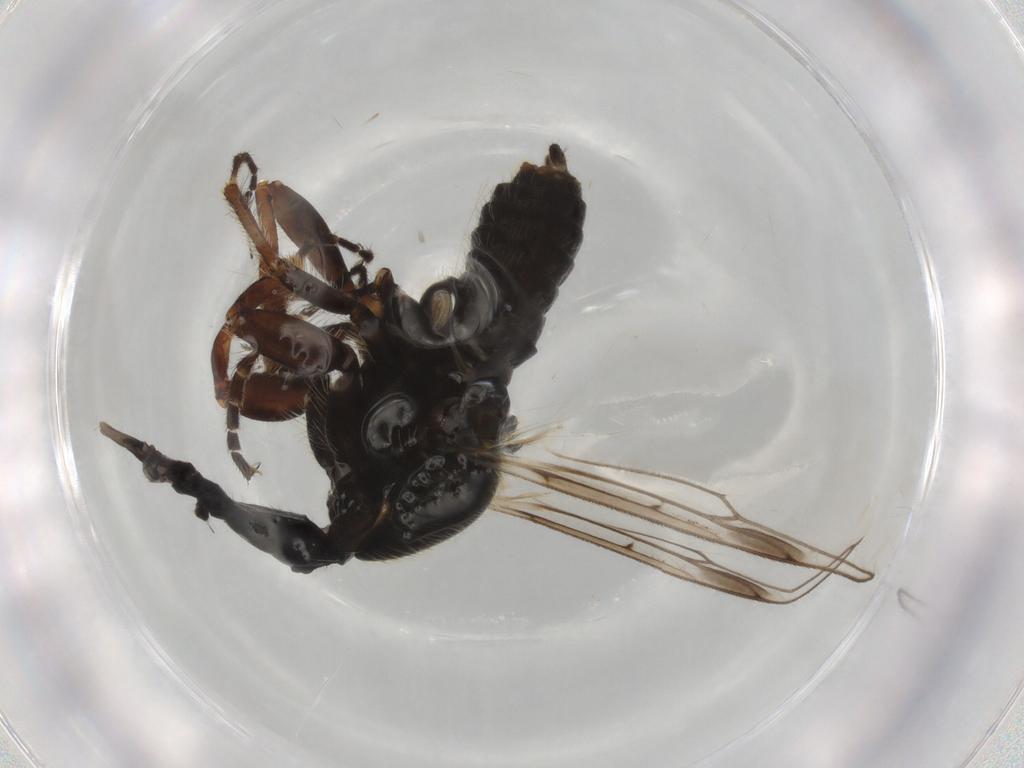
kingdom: Animalia
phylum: Arthropoda
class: Insecta
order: Diptera
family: Bibionidae
